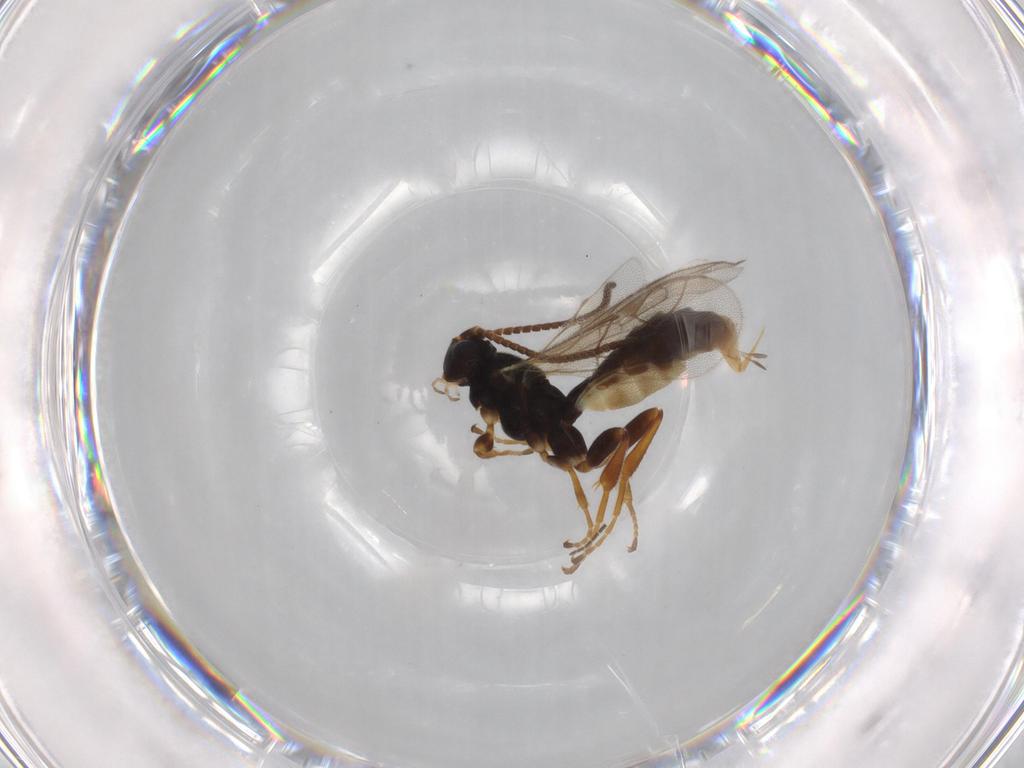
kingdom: Animalia
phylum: Arthropoda
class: Insecta
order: Hymenoptera
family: Ichneumonidae
